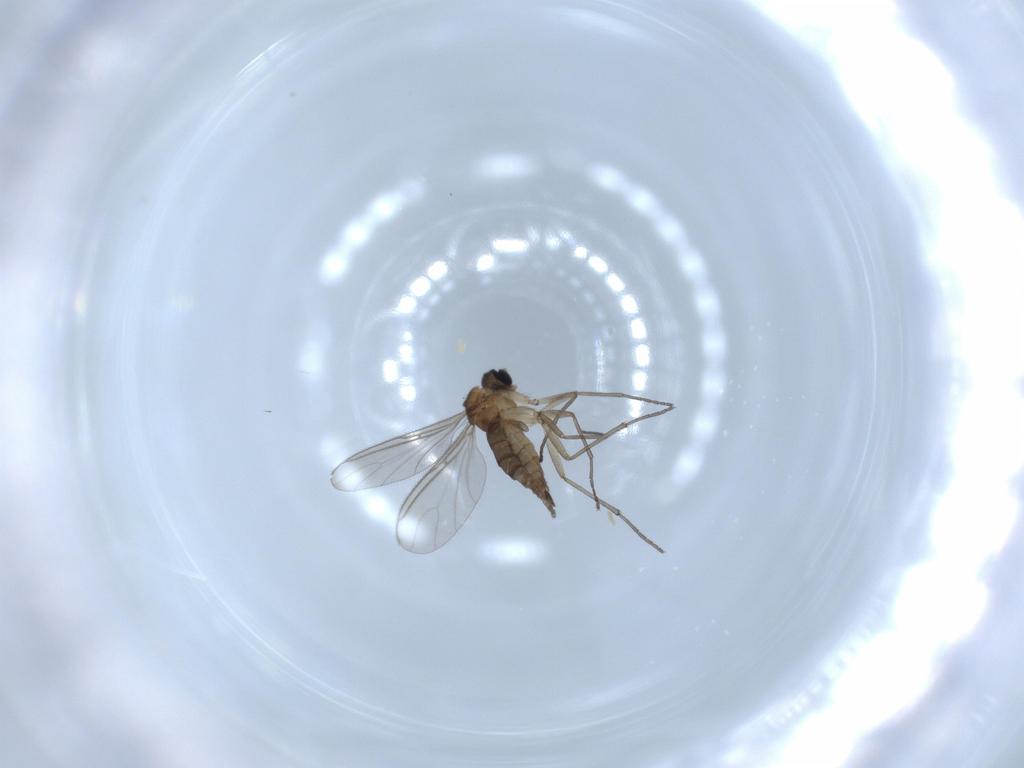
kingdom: Animalia
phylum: Arthropoda
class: Insecta
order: Diptera
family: Sciaridae
